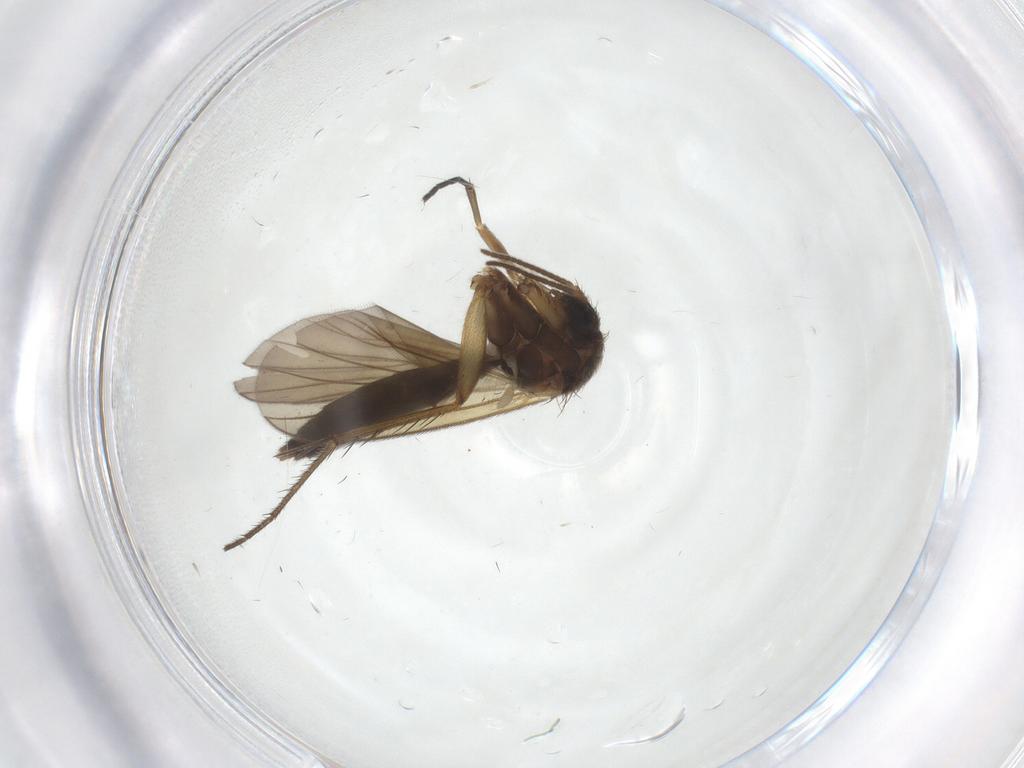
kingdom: Animalia
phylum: Arthropoda
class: Insecta
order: Diptera
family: Mycetophilidae
